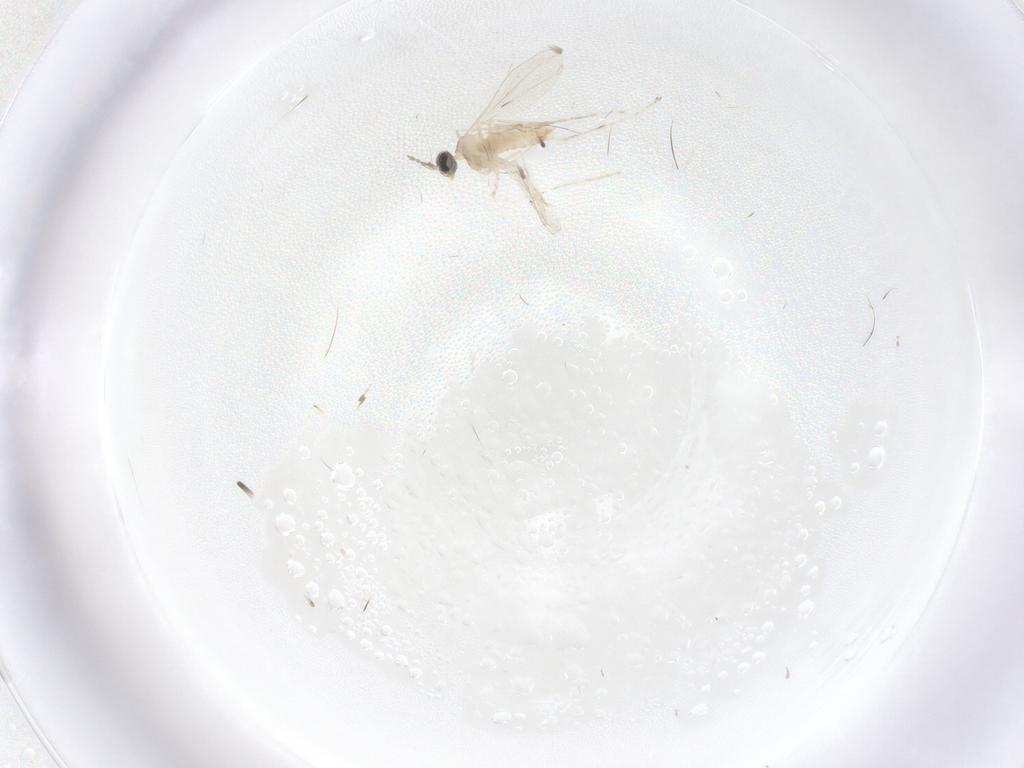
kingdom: Animalia
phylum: Arthropoda
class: Insecta
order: Diptera
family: Cecidomyiidae
